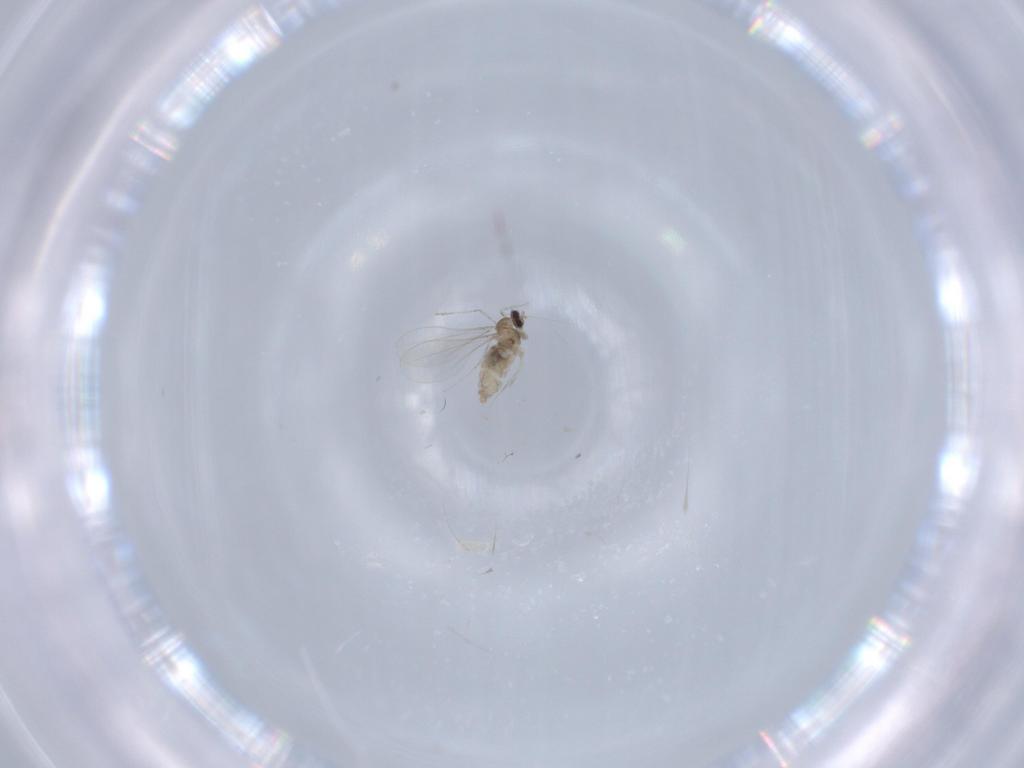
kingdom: Animalia
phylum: Arthropoda
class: Insecta
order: Diptera
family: Cecidomyiidae
